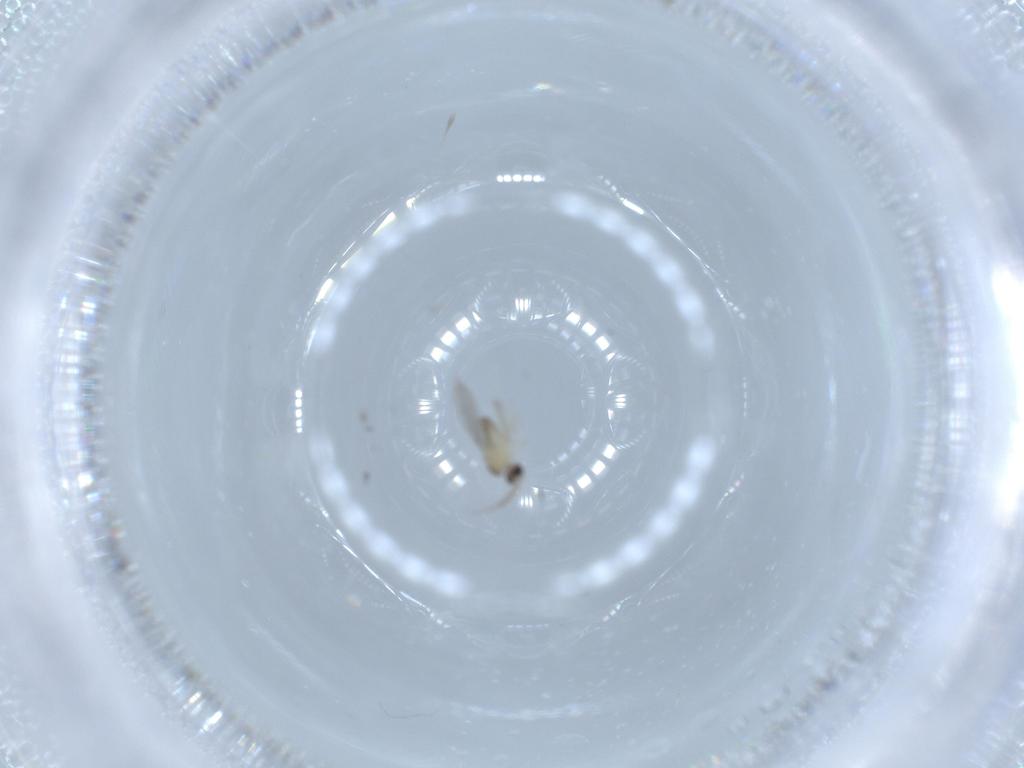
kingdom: Animalia
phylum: Arthropoda
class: Insecta
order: Diptera
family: Cecidomyiidae
